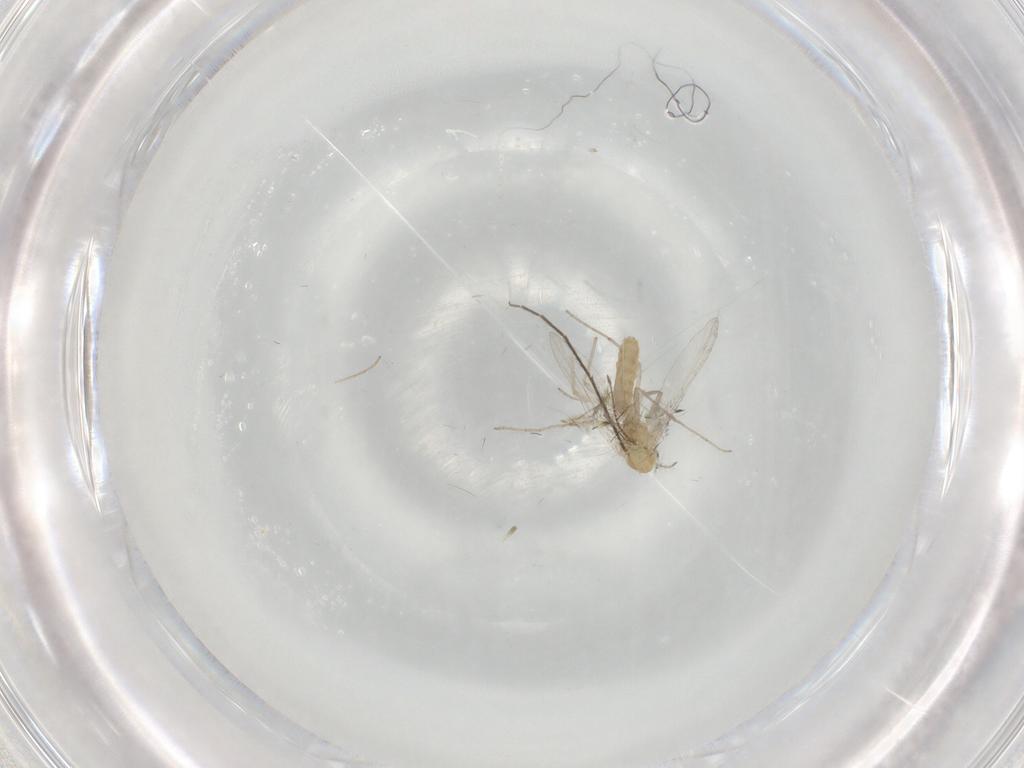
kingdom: Animalia
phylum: Arthropoda
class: Insecta
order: Diptera
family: Chironomidae
